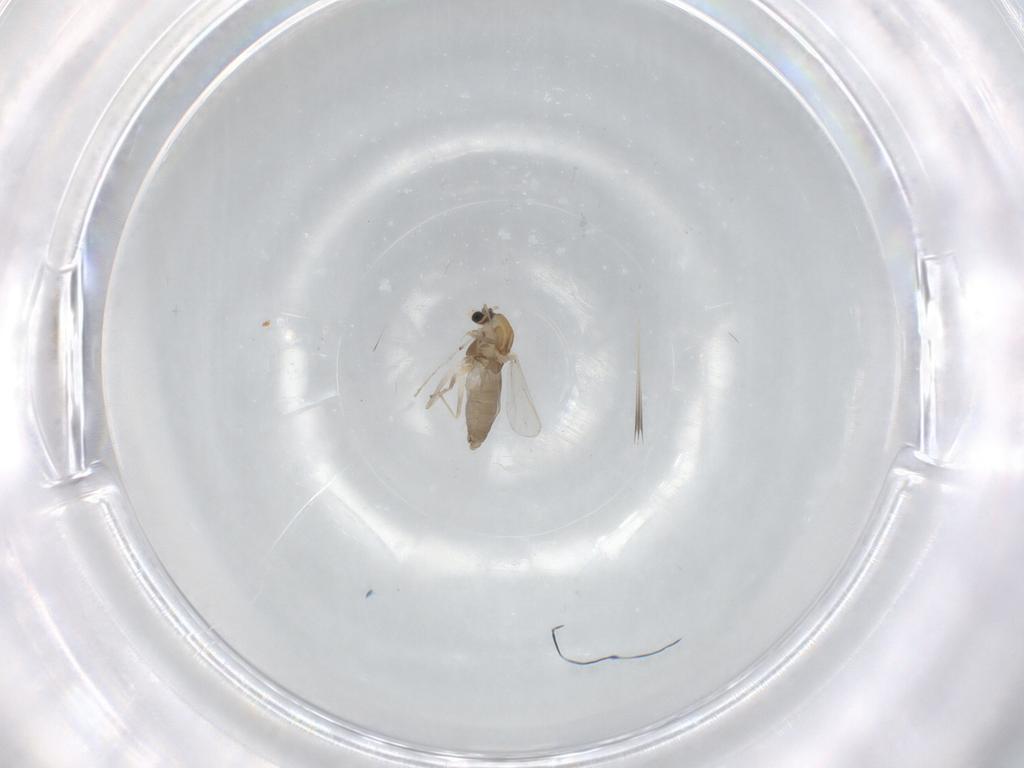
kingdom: Animalia
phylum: Arthropoda
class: Insecta
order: Diptera
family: Chironomidae
